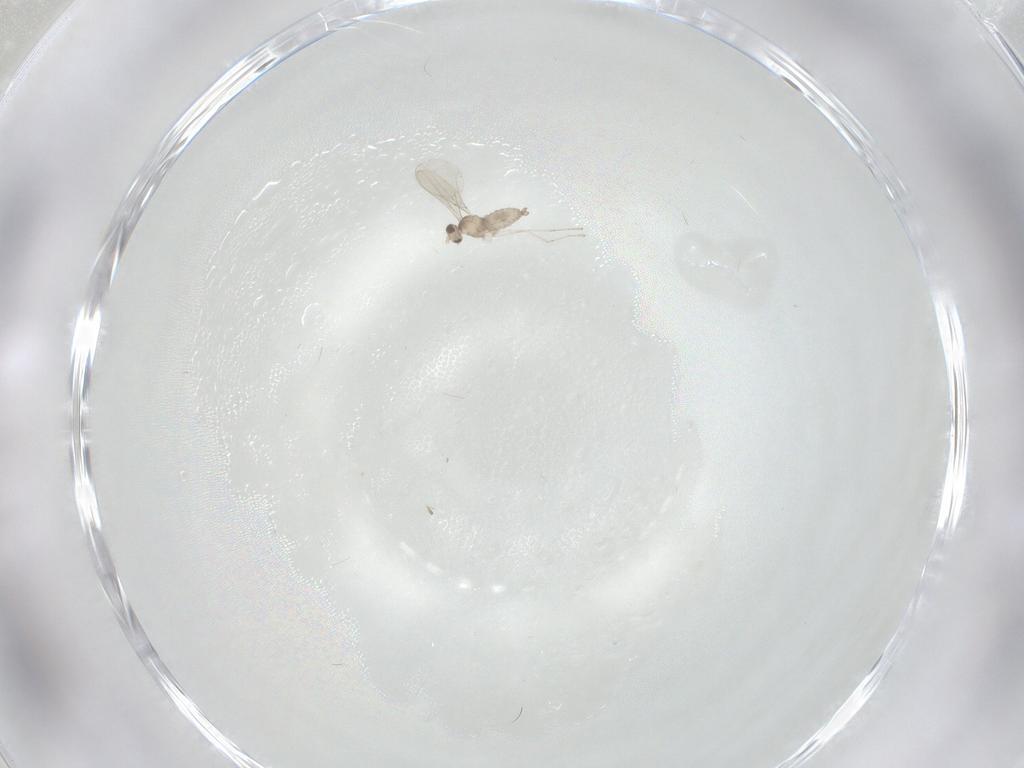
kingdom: Animalia
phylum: Arthropoda
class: Insecta
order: Diptera
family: Cecidomyiidae
